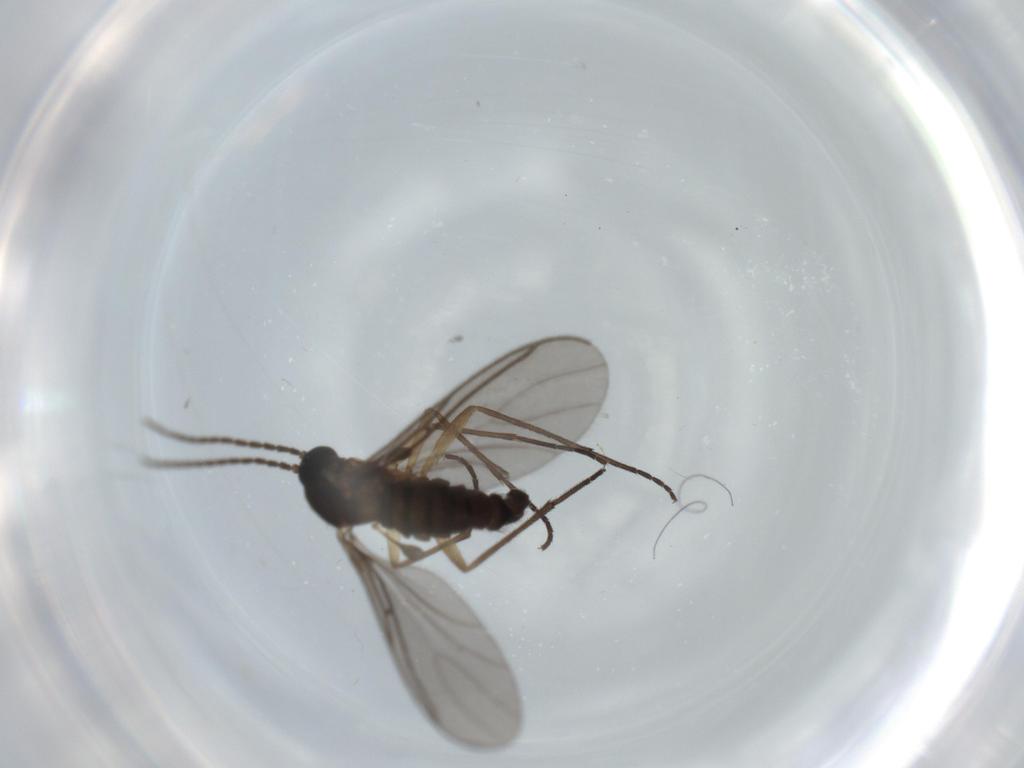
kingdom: Animalia
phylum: Arthropoda
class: Insecta
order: Diptera
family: Sciaridae
